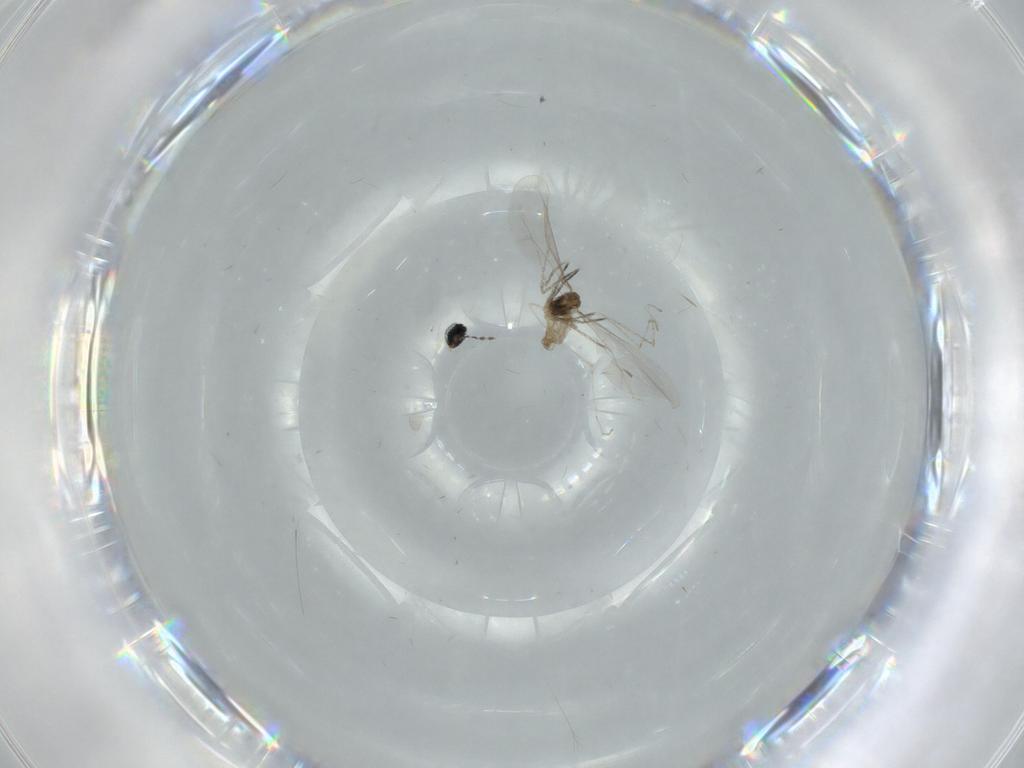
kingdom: Animalia
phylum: Arthropoda
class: Insecta
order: Diptera
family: Cecidomyiidae
